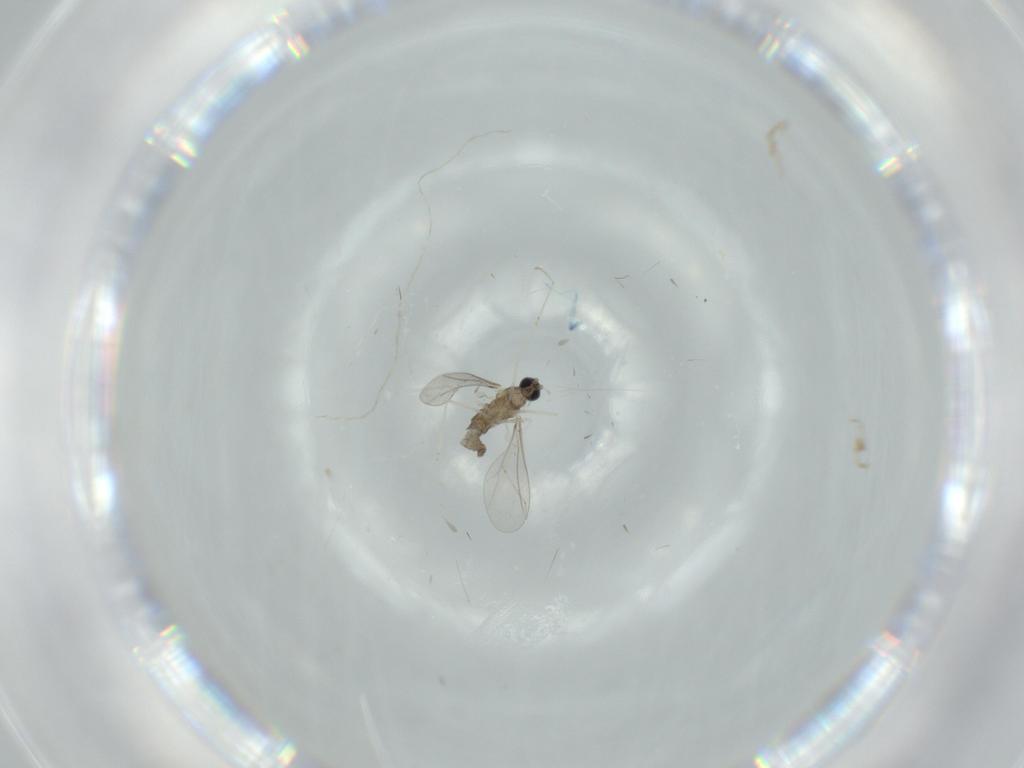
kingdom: Animalia
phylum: Arthropoda
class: Insecta
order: Diptera
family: Cecidomyiidae
